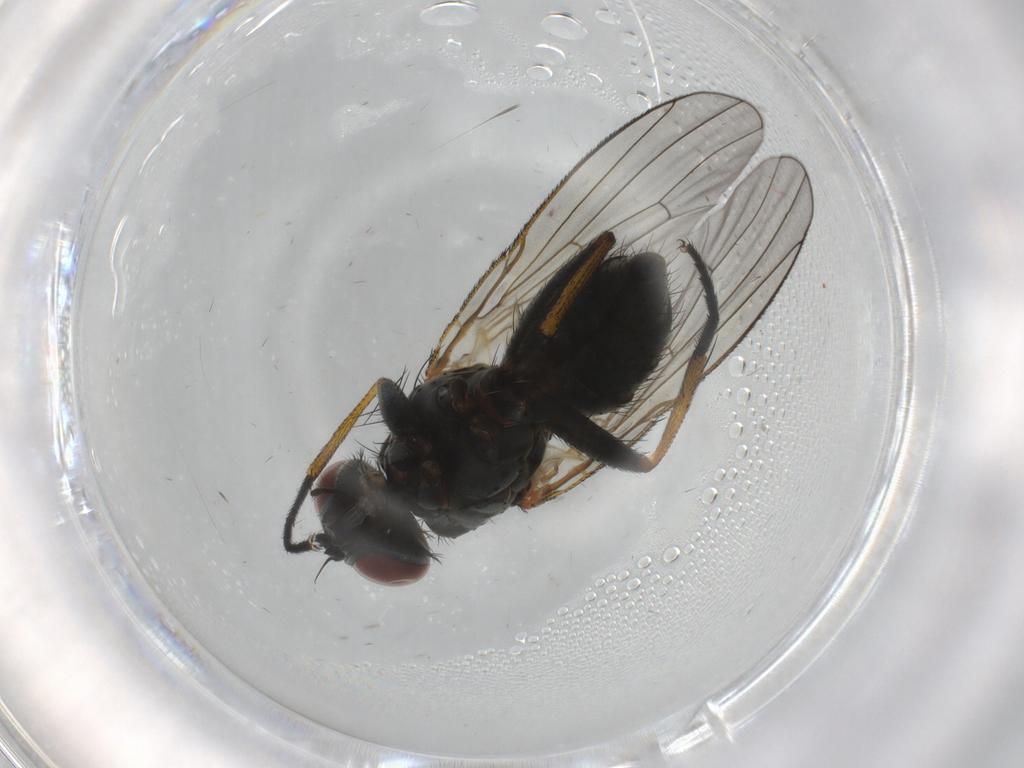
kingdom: Animalia
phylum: Arthropoda
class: Insecta
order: Diptera
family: Muscidae
